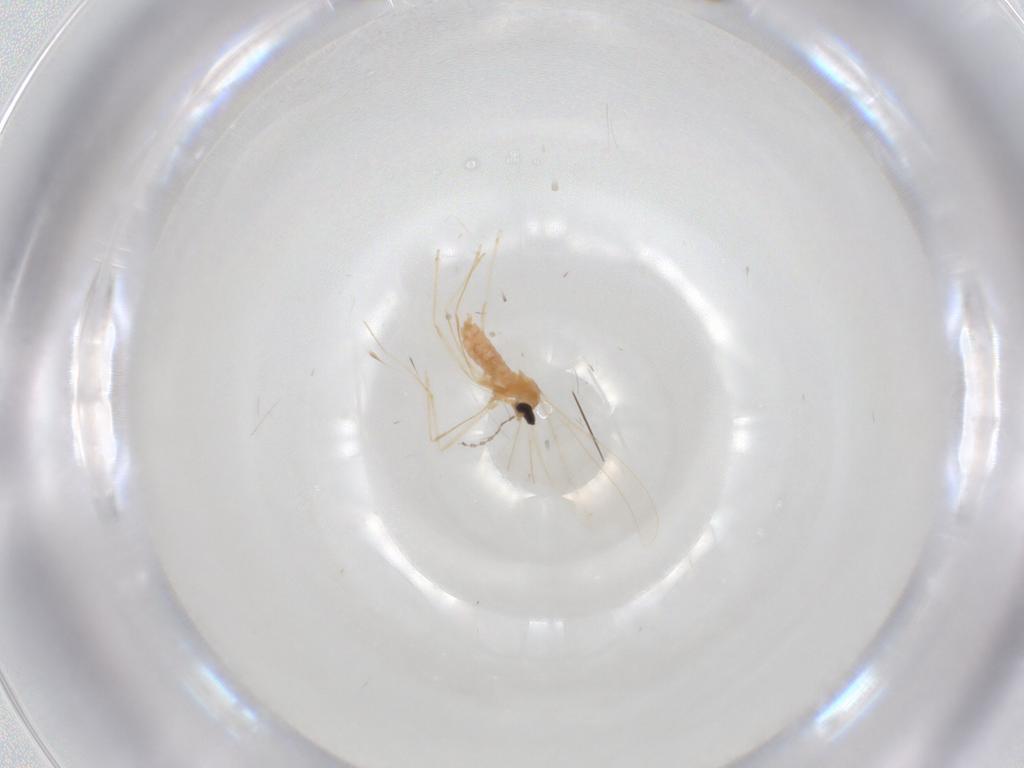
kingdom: Animalia
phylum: Arthropoda
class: Insecta
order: Diptera
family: Cecidomyiidae
